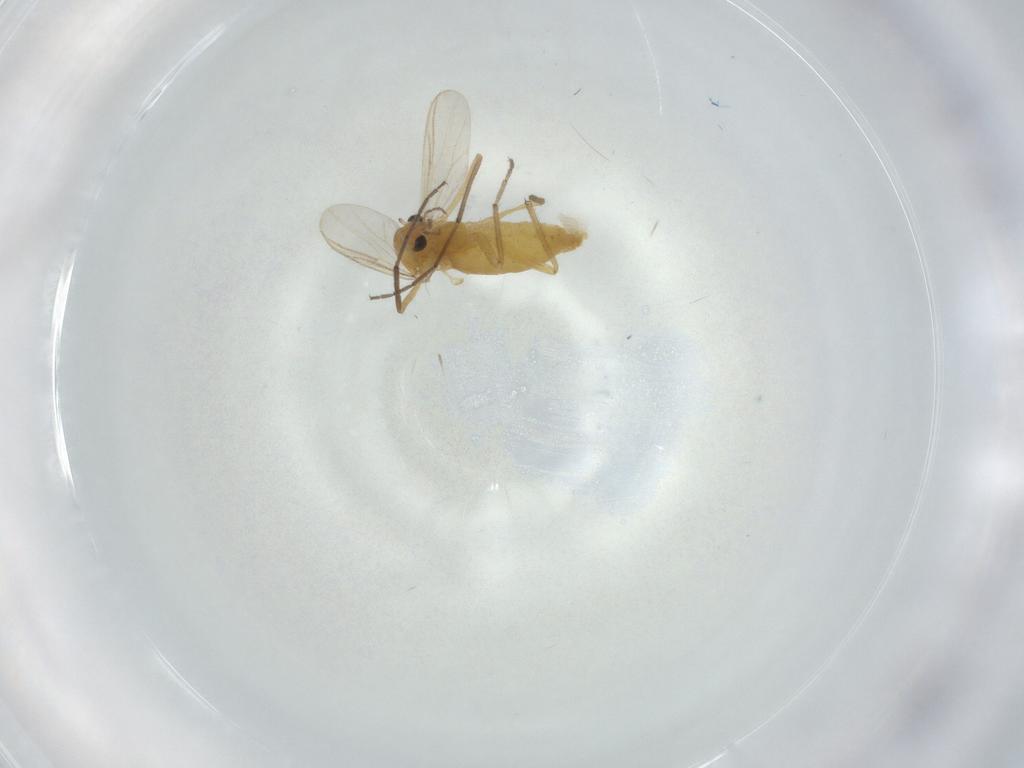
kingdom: Animalia
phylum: Arthropoda
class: Insecta
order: Diptera
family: Chironomidae
